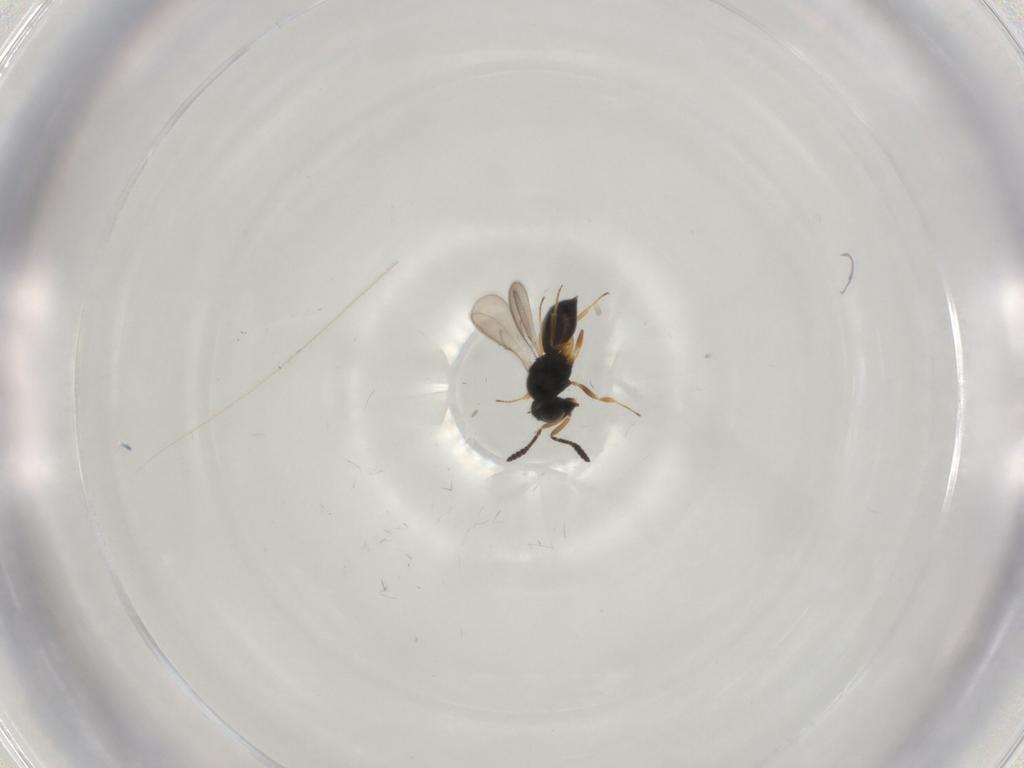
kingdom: Animalia
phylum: Arthropoda
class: Insecta
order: Hymenoptera
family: Scelionidae
